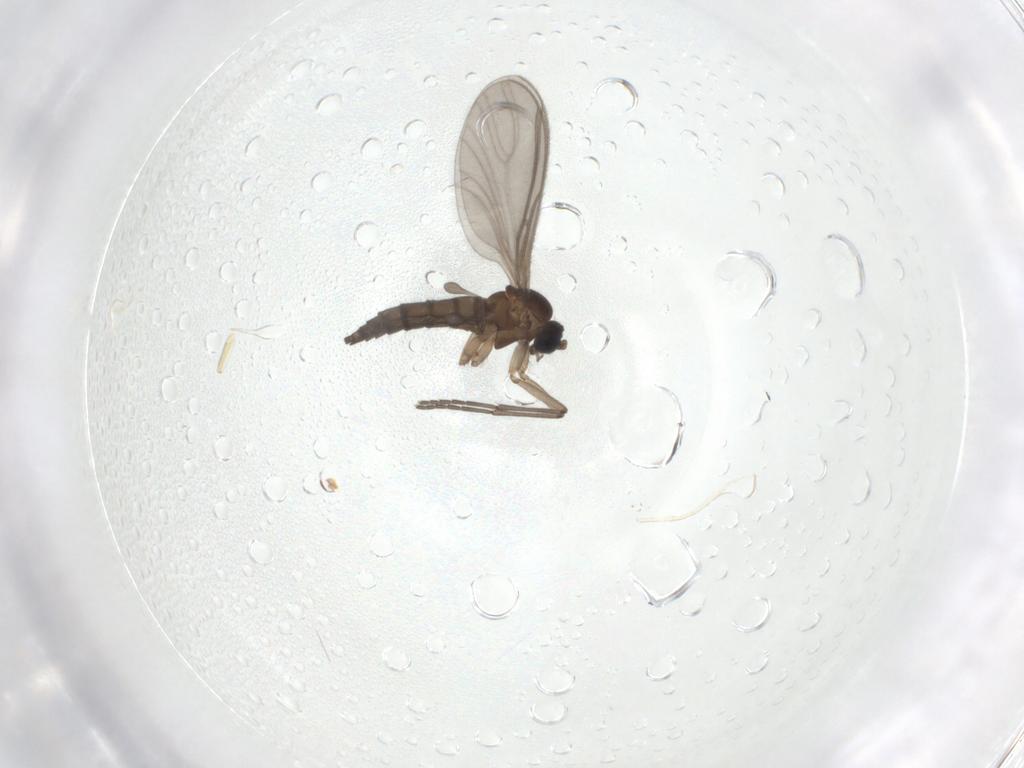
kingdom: Animalia
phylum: Arthropoda
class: Insecta
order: Diptera
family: Sciaridae
